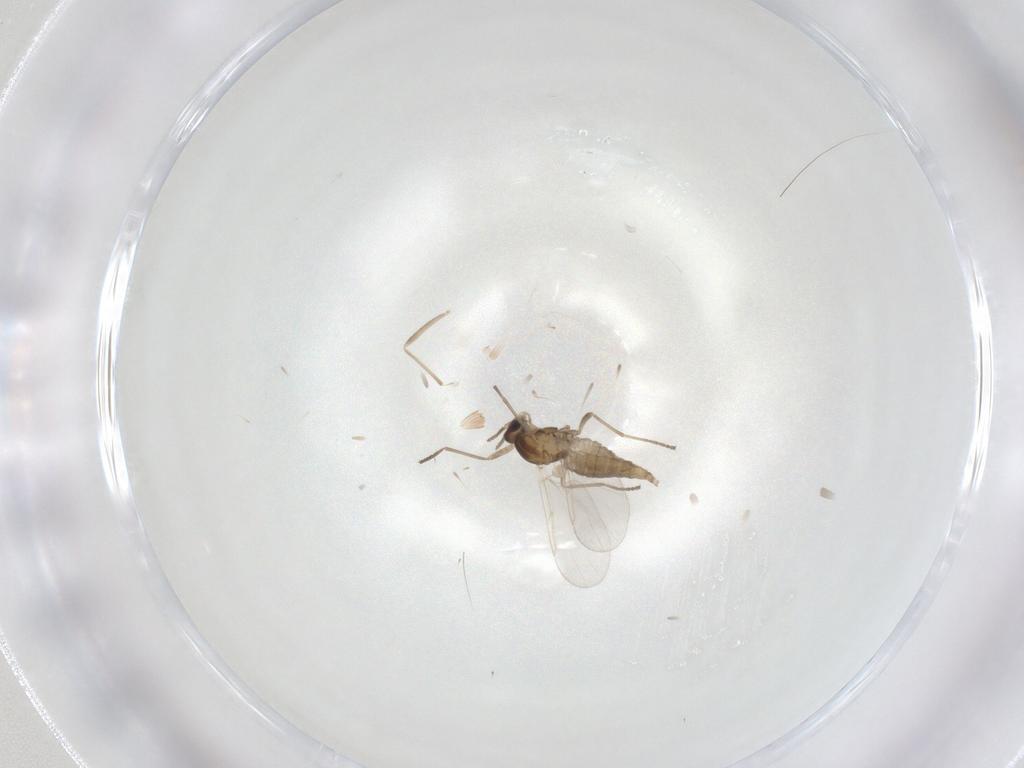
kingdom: Animalia
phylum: Arthropoda
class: Insecta
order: Diptera
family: Cecidomyiidae
